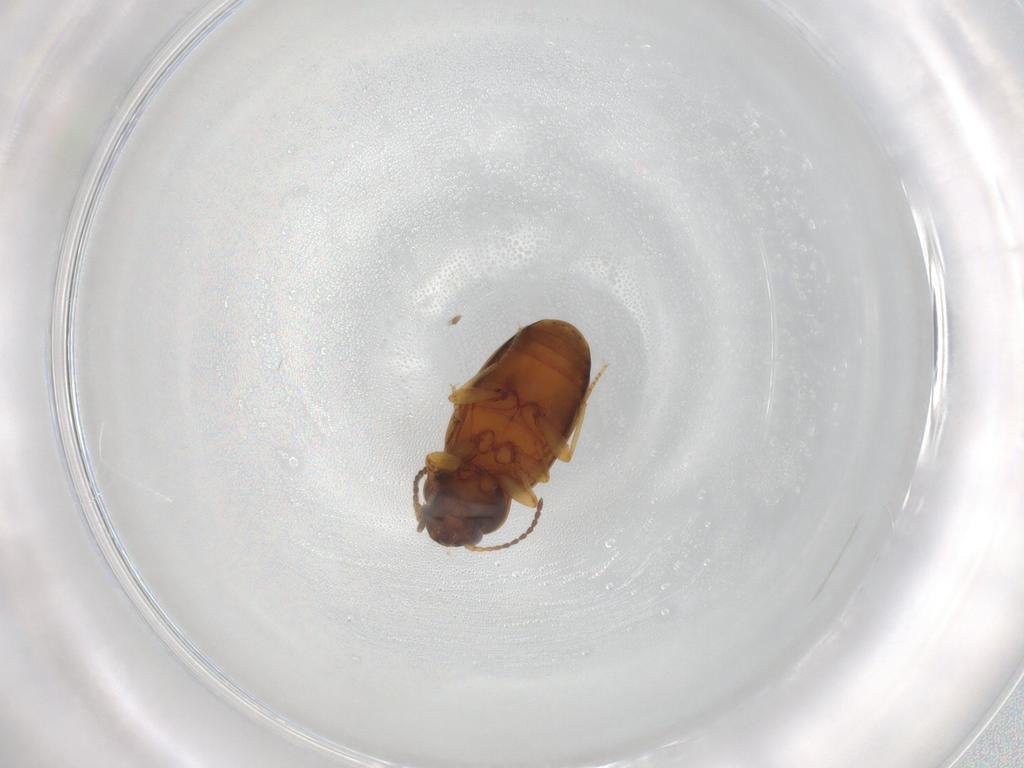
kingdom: Animalia
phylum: Arthropoda
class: Insecta
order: Coleoptera
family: Carabidae
